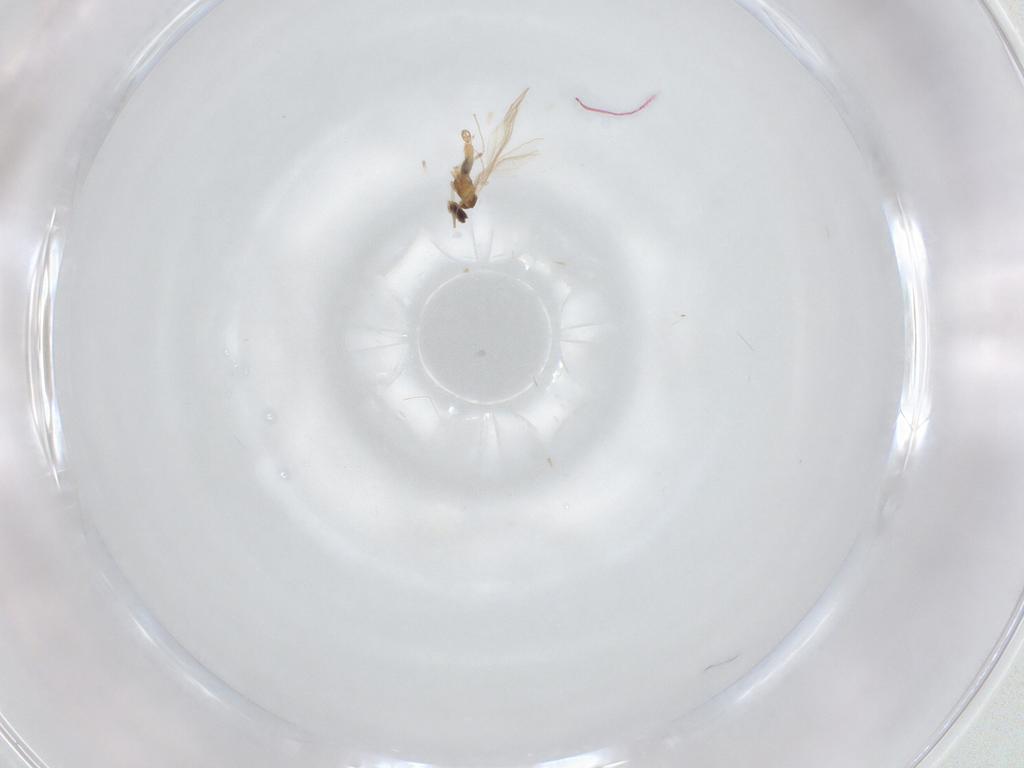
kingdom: Animalia
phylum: Arthropoda
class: Insecta
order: Diptera
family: Cecidomyiidae
